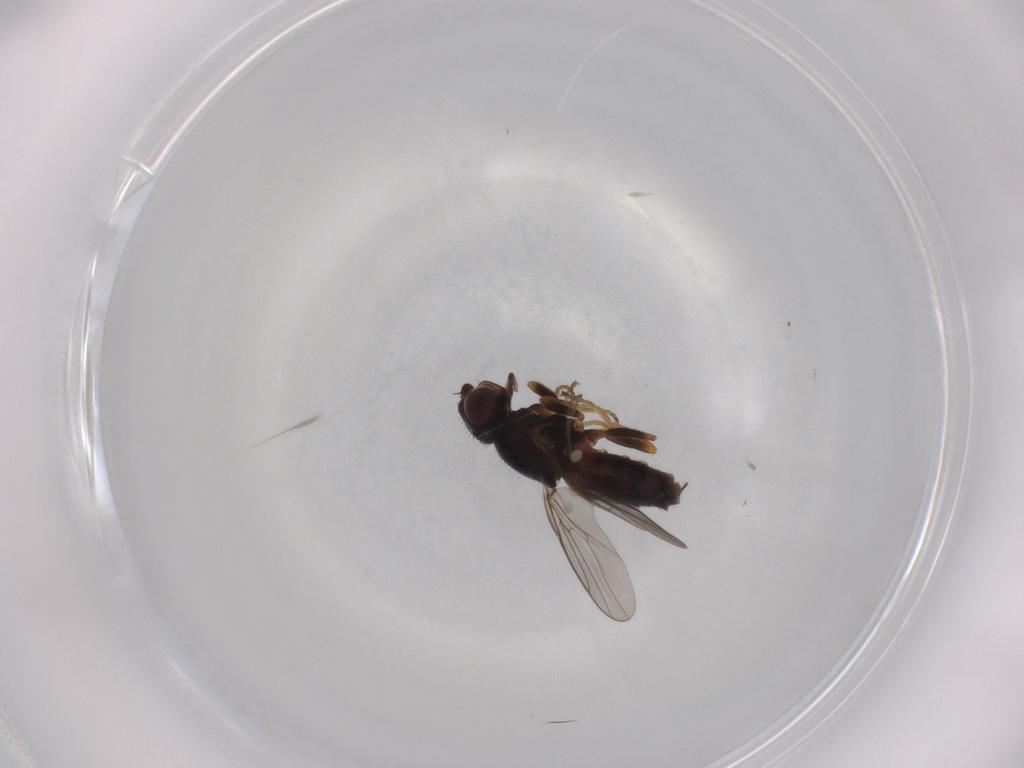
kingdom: Animalia
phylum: Arthropoda
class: Insecta
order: Diptera
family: Chloropidae
